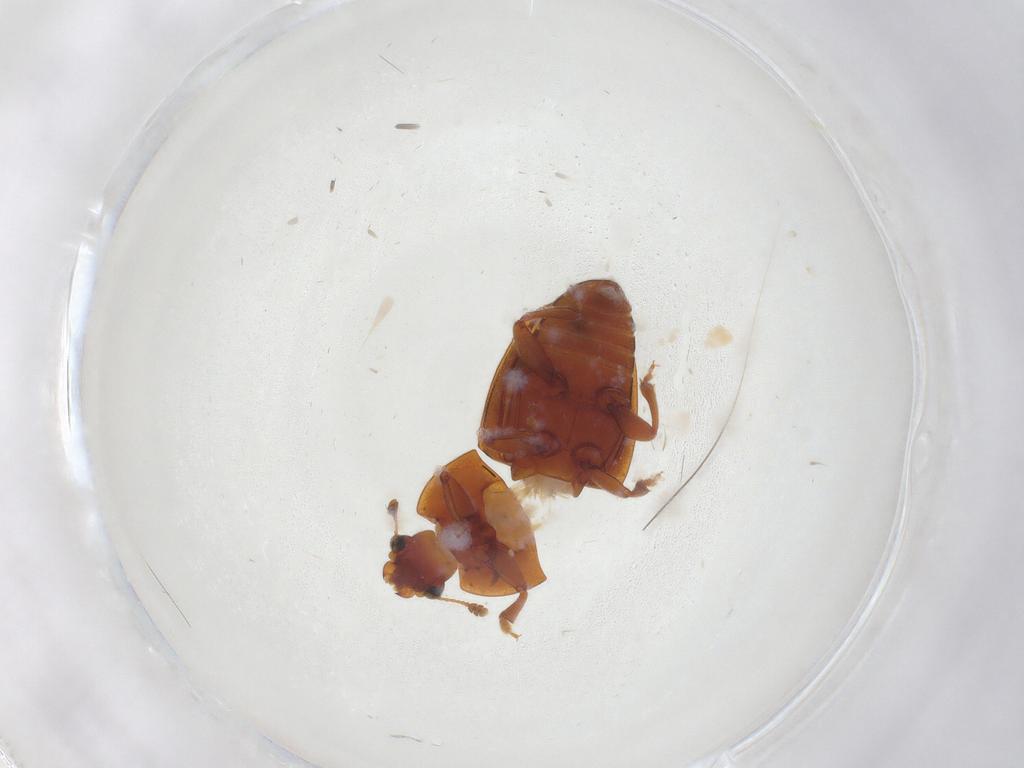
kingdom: Animalia
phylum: Arthropoda
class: Insecta
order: Coleoptera
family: Nitidulidae
